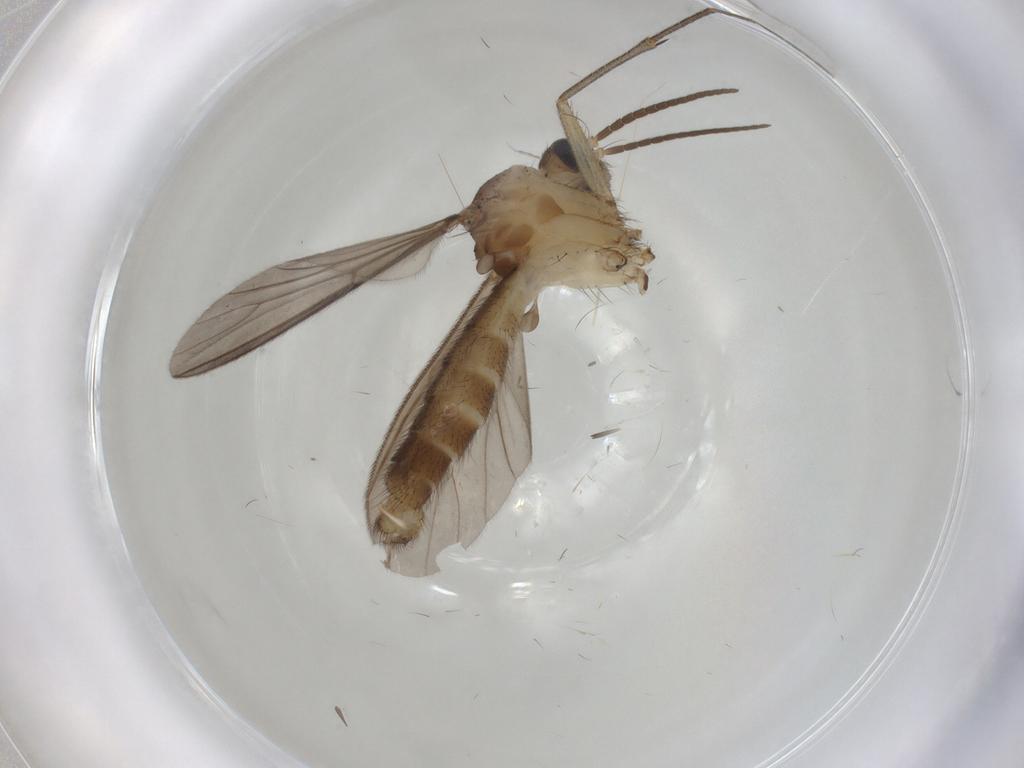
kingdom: Animalia
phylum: Arthropoda
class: Insecta
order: Diptera
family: Mycetophilidae
